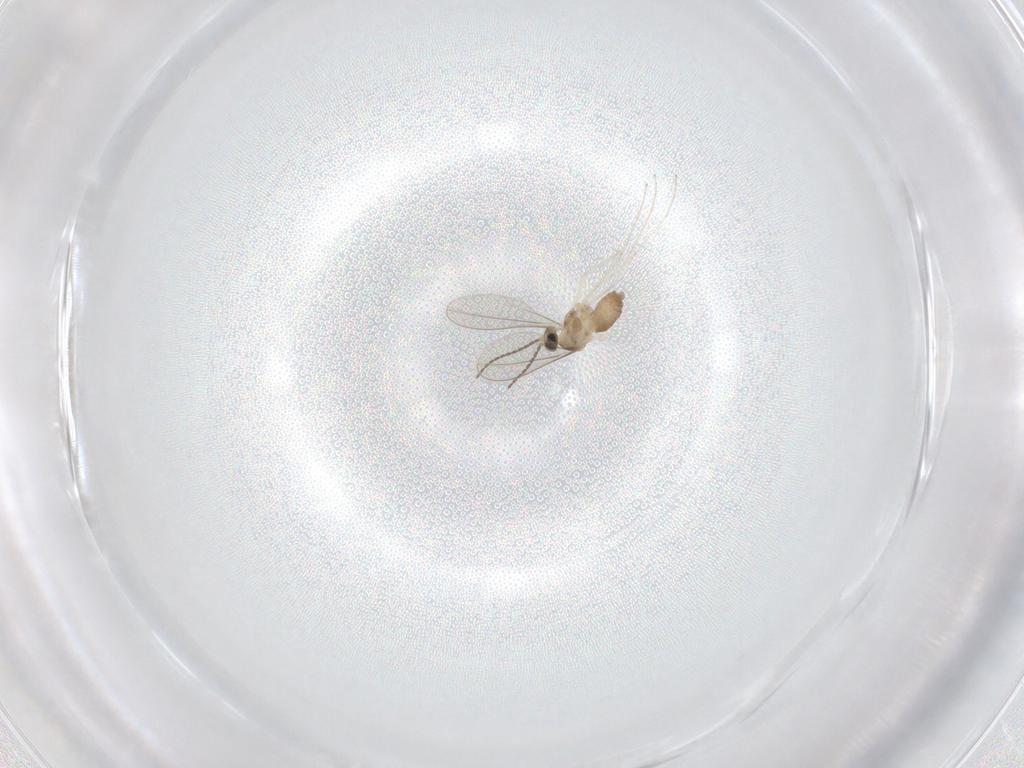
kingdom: Animalia
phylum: Arthropoda
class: Insecta
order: Diptera
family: Cecidomyiidae
